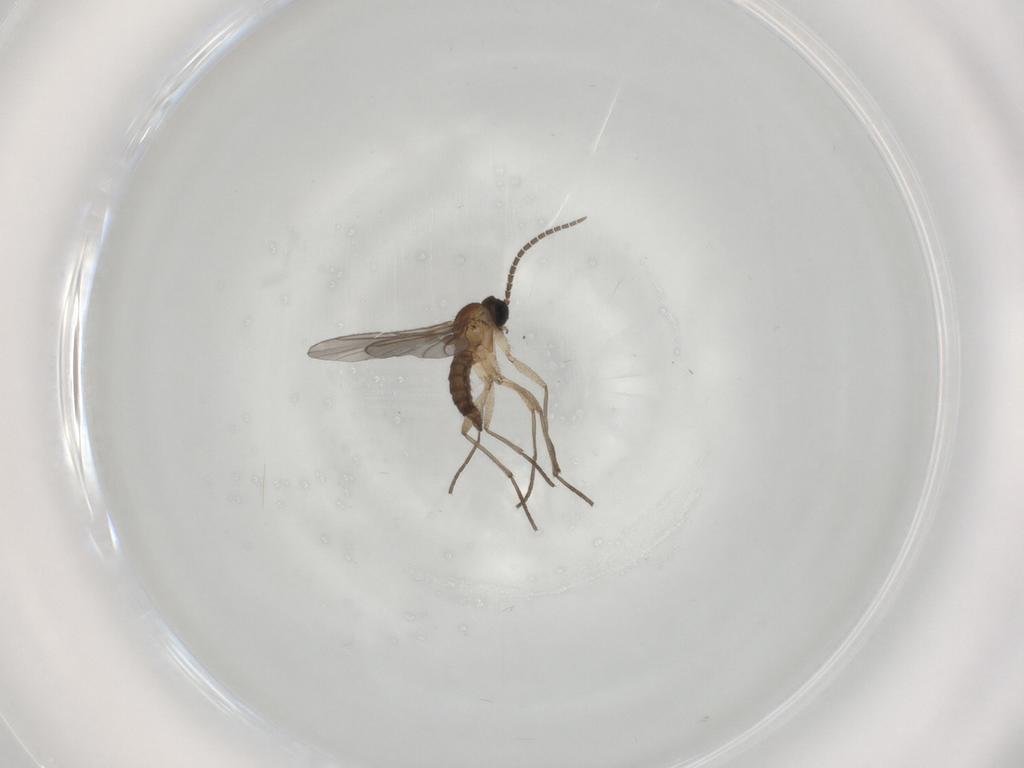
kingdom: Animalia
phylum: Arthropoda
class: Insecta
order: Diptera
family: Sciaridae
